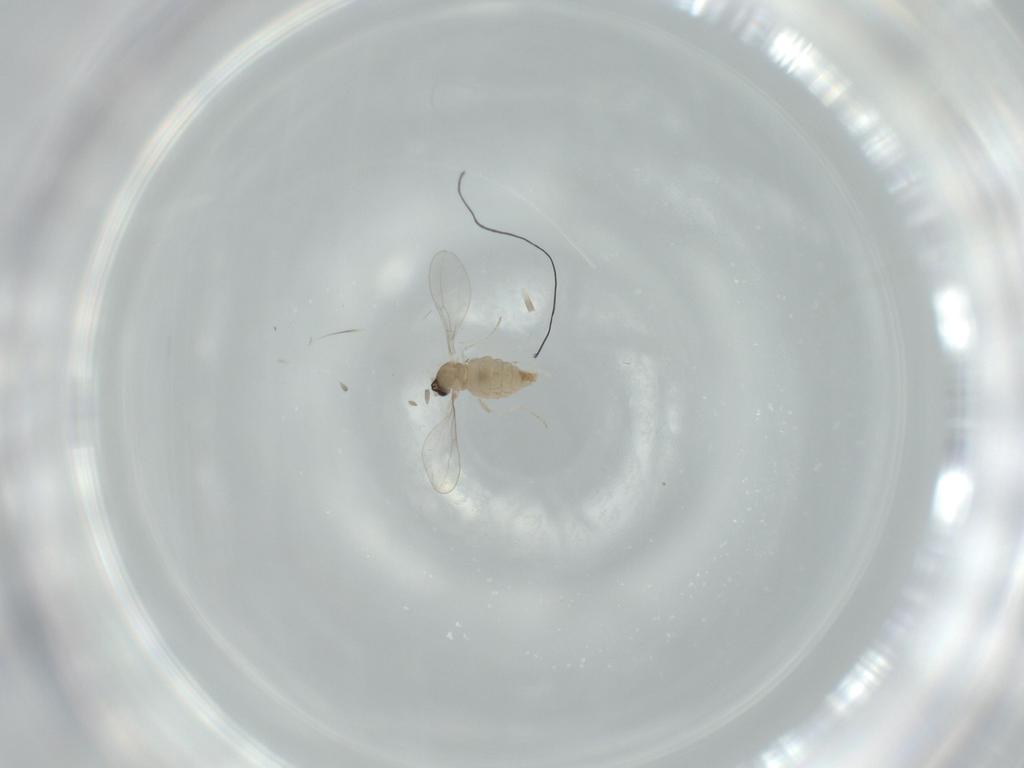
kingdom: Animalia
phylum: Arthropoda
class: Insecta
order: Diptera
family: Cecidomyiidae
